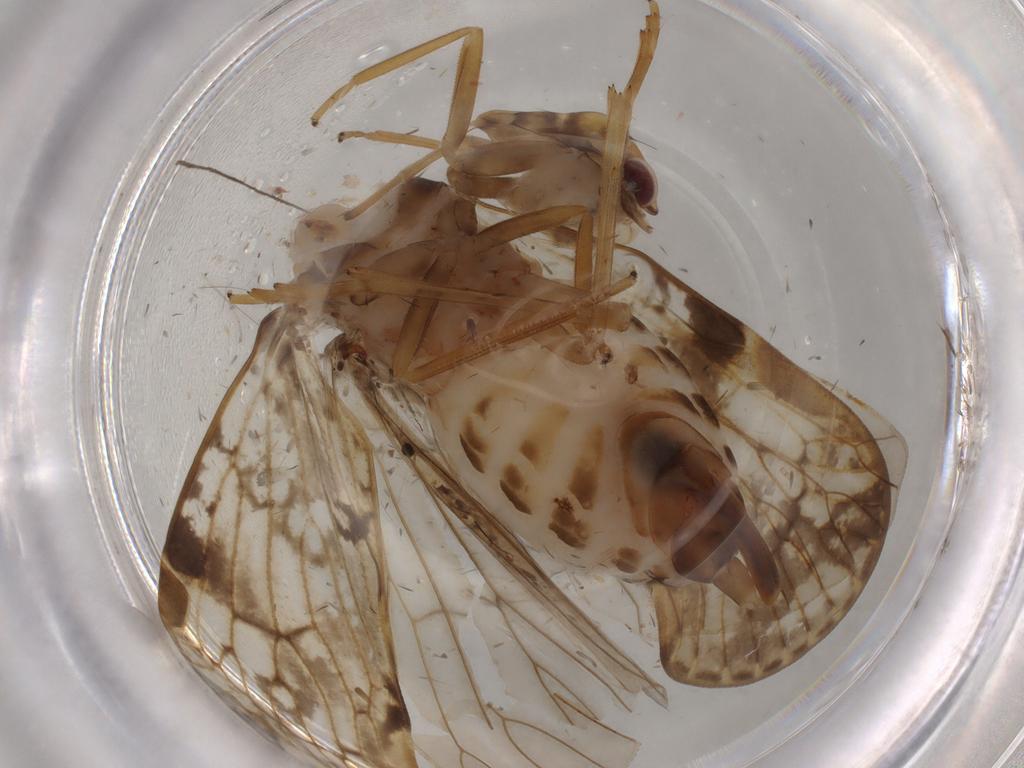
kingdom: Animalia
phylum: Arthropoda
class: Insecta
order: Hemiptera
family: Cixiidae
